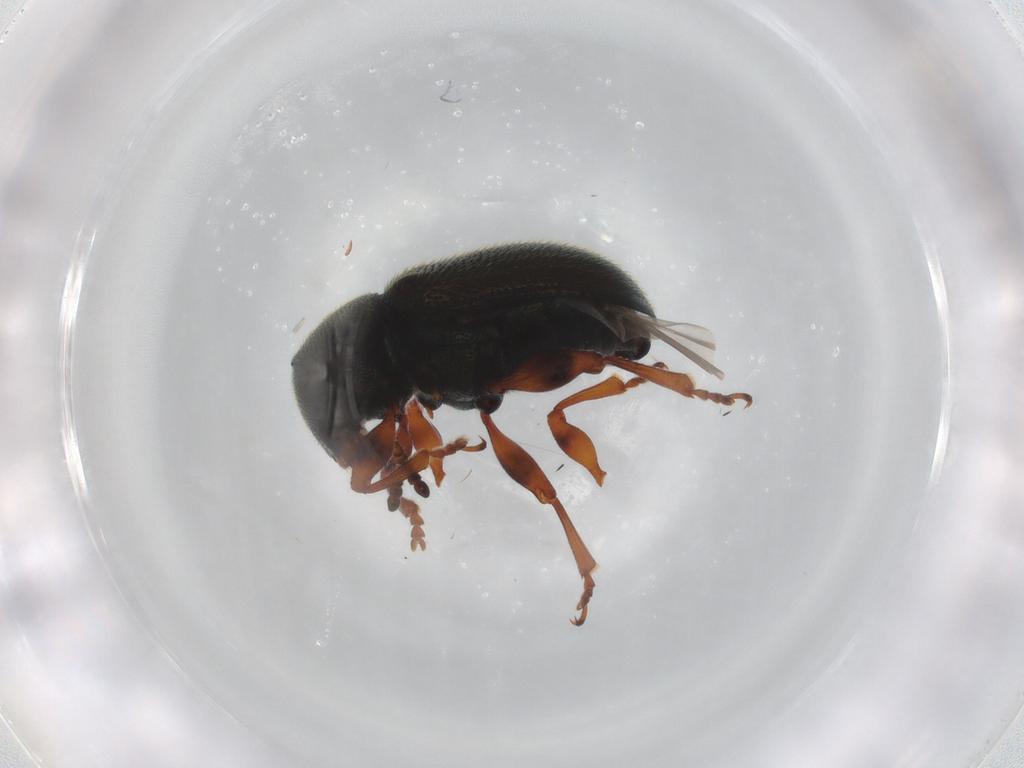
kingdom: Animalia
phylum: Arthropoda
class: Insecta
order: Coleoptera
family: Chrysomelidae
